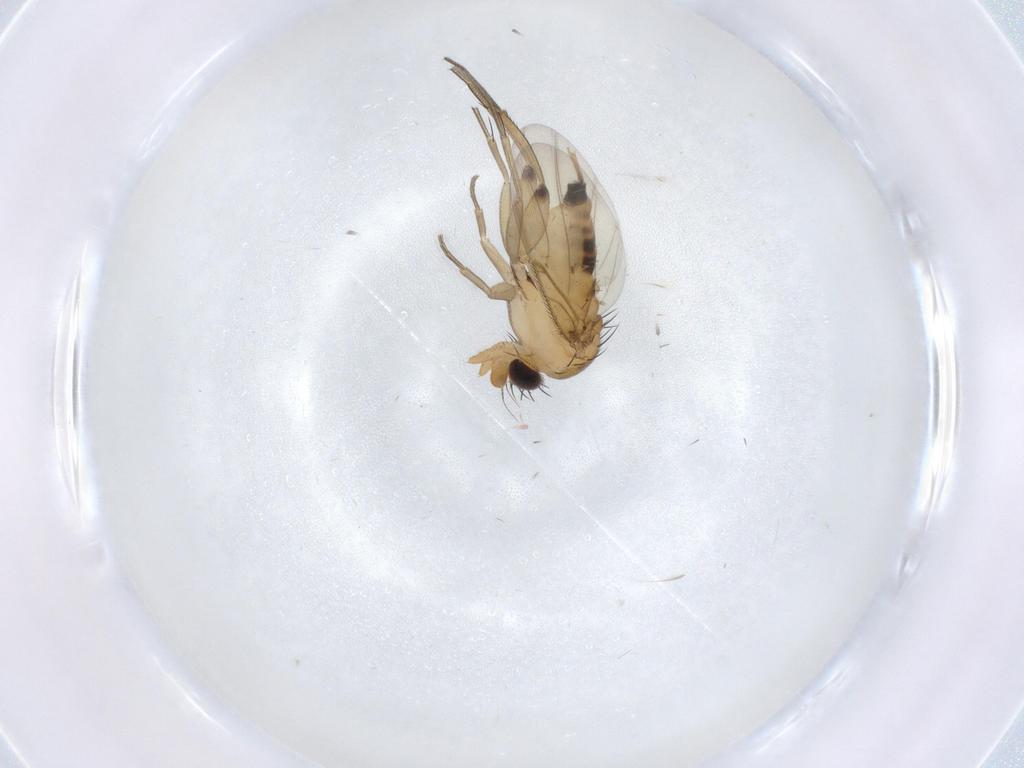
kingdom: Animalia
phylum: Arthropoda
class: Insecta
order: Diptera
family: Phoridae
